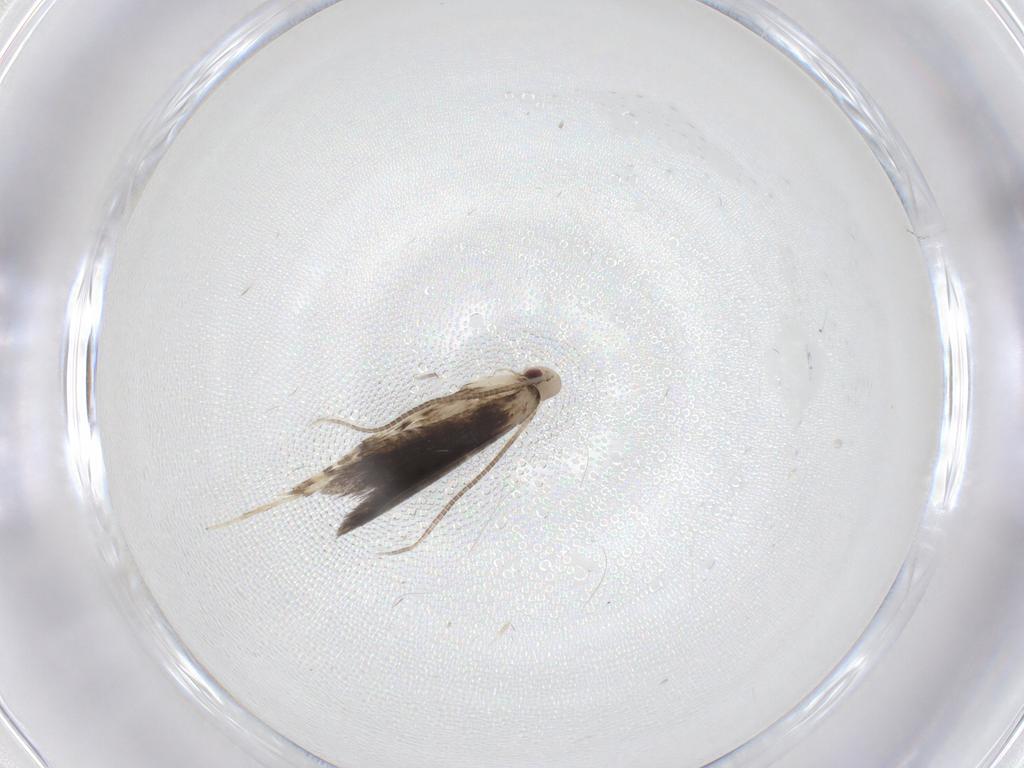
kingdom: Animalia
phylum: Arthropoda
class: Insecta
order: Lepidoptera
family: Gracillariidae
